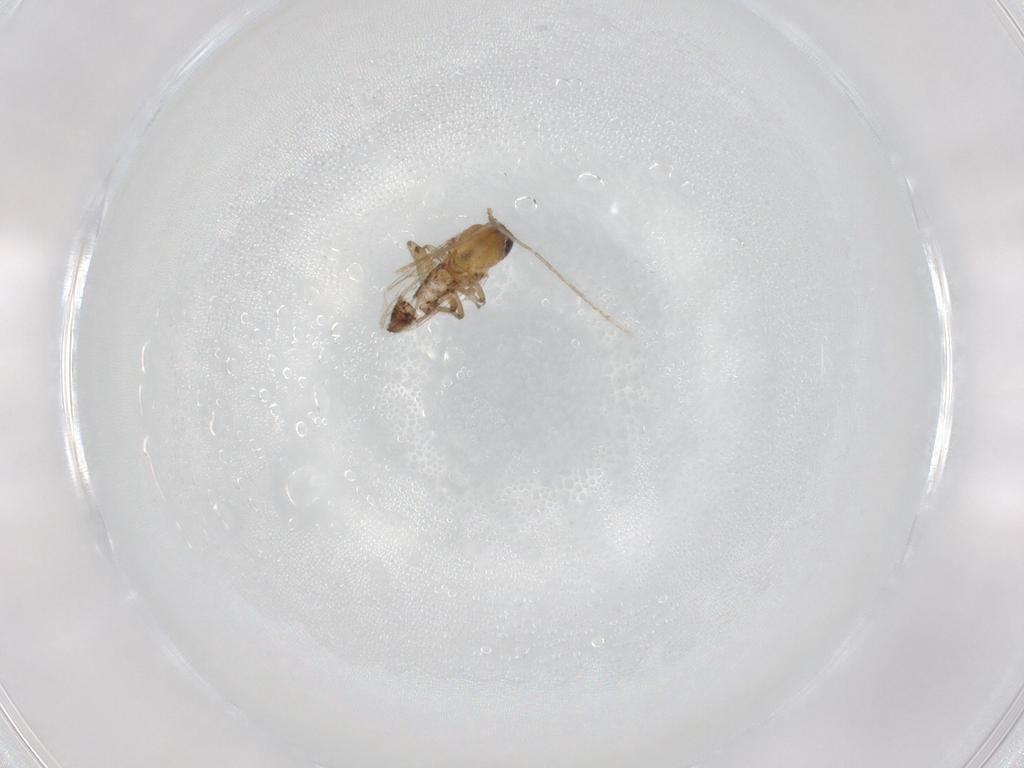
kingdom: Animalia
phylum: Arthropoda
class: Insecta
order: Diptera
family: Ceratopogonidae
